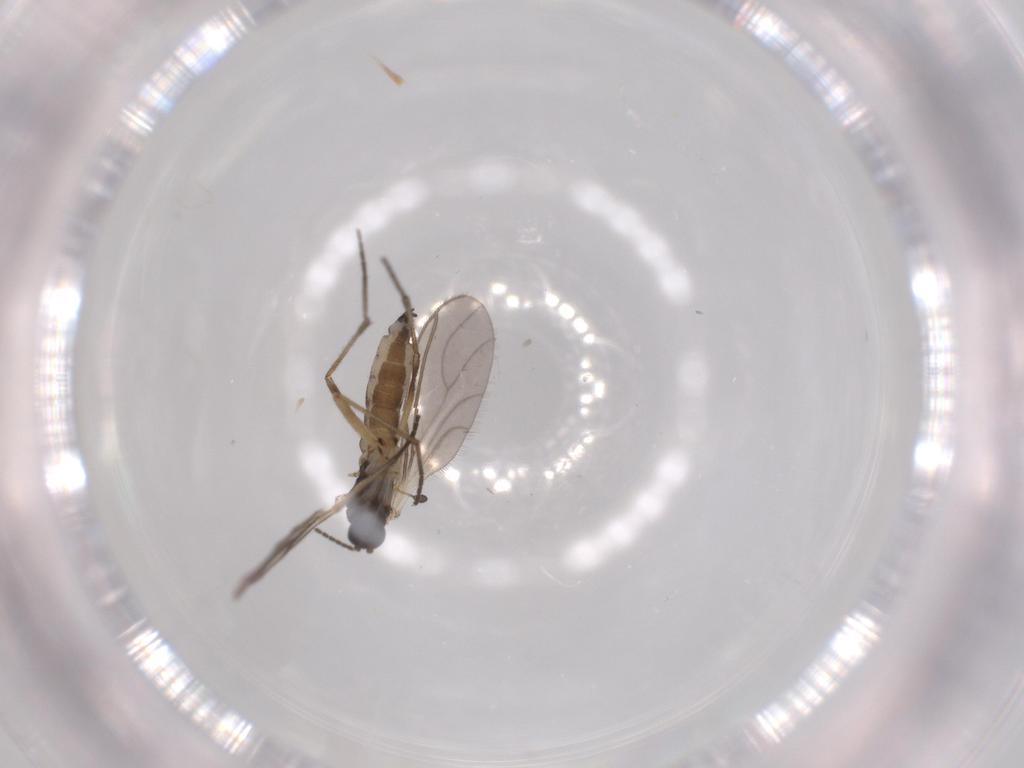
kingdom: Animalia
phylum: Arthropoda
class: Insecta
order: Diptera
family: Sciaridae
